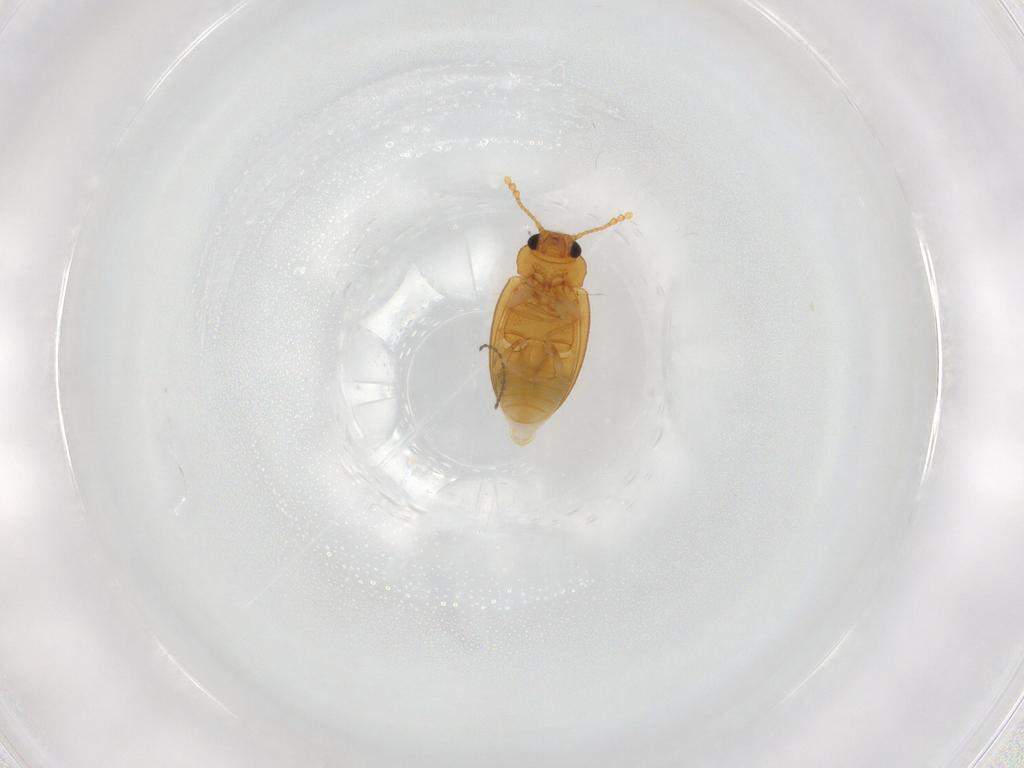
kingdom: Animalia
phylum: Arthropoda
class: Insecta
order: Coleoptera
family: Erotylidae
